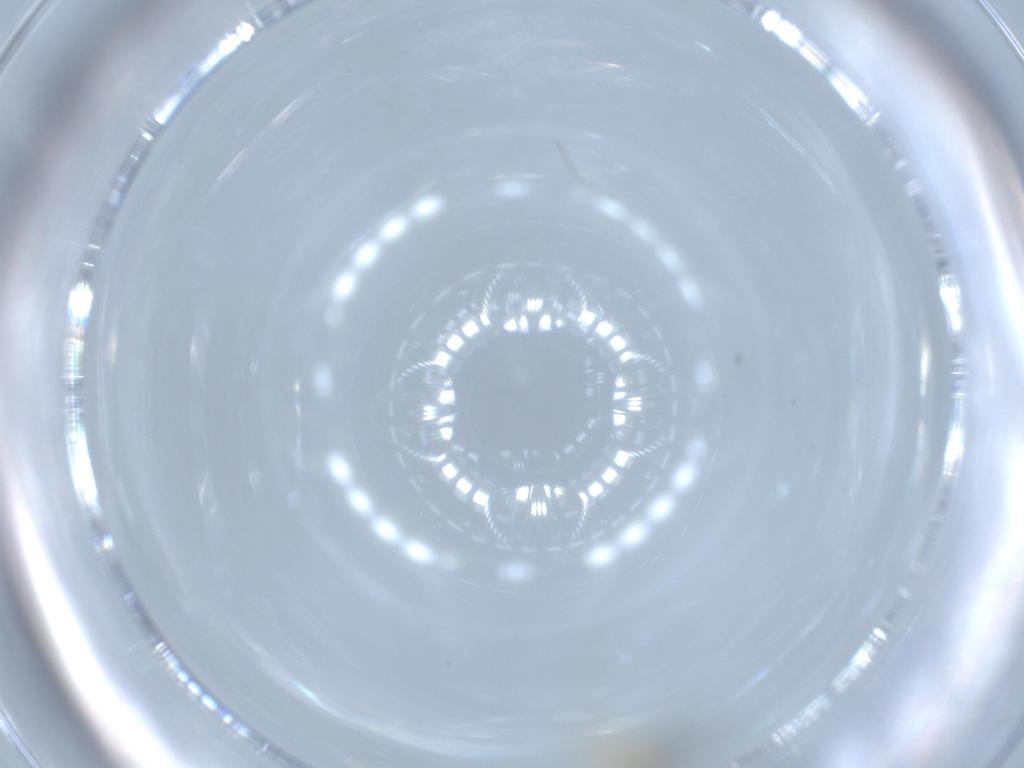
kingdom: Animalia
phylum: Arthropoda
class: Insecta
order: Diptera
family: Cecidomyiidae
